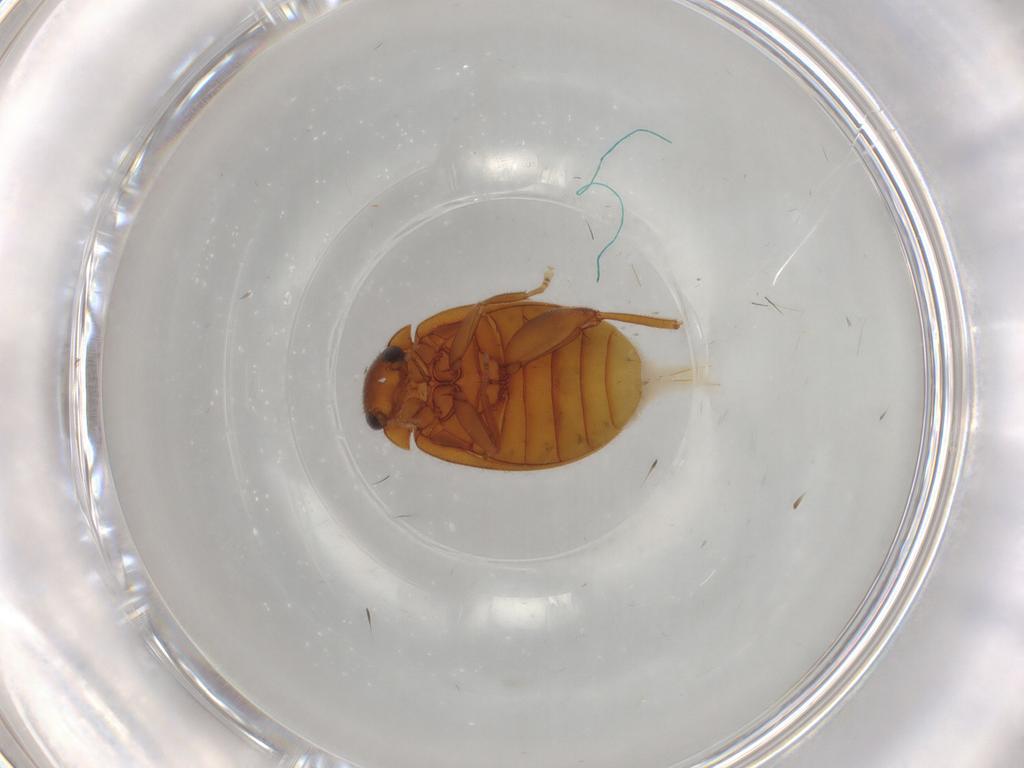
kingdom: Animalia
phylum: Arthropoda
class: Insecta
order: Coleoptera
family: Scirtidae
